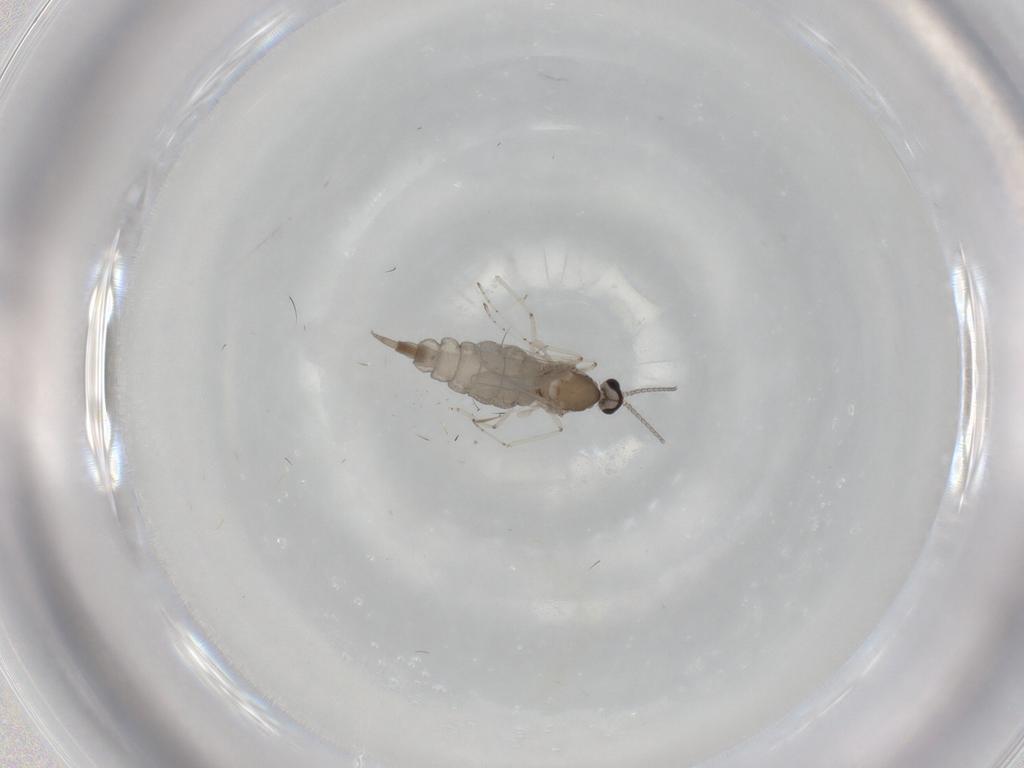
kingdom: Animalia
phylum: Arthropoda
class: Insecta
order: Diptera
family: Cecidomyiidae
